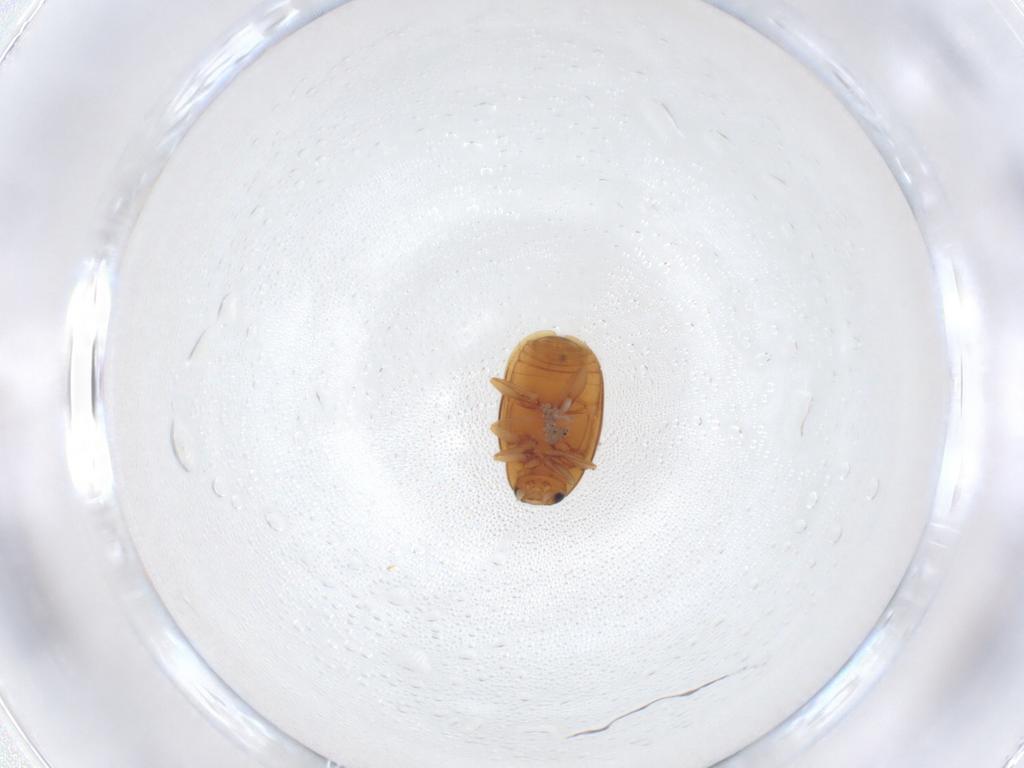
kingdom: Animalia
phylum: Arthropoda
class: Insecta
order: Coleoptera
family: Coccinellidae
